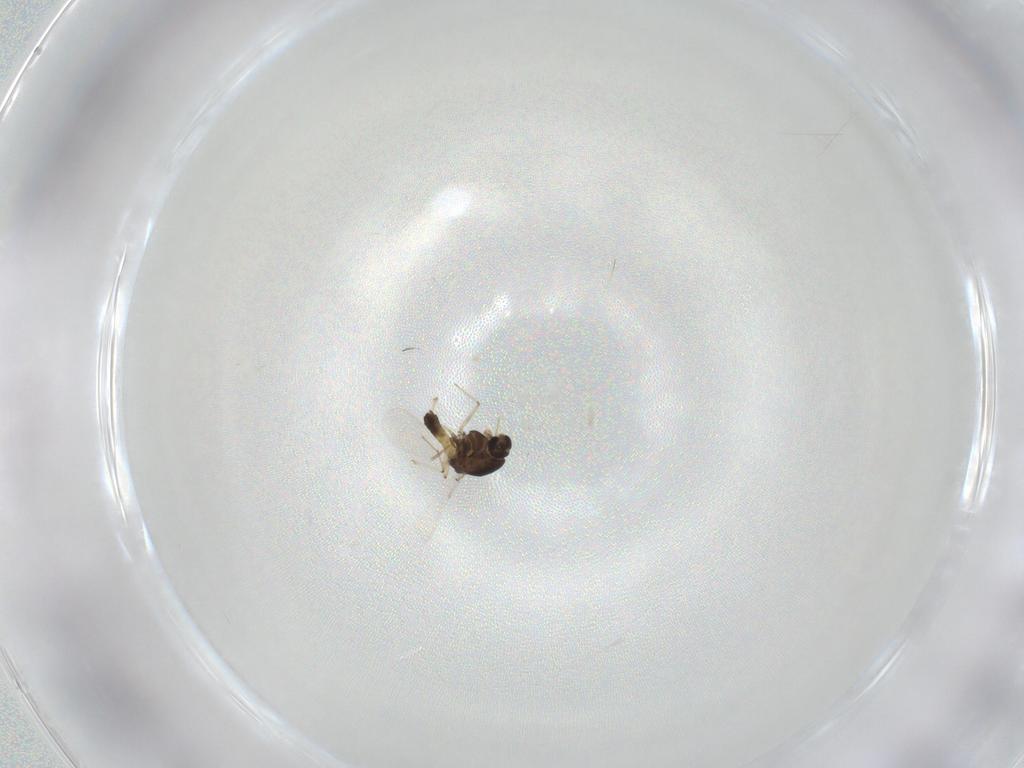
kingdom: Animalia
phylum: Arthropoda
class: Insecta
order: Diptera
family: Chironomidae
